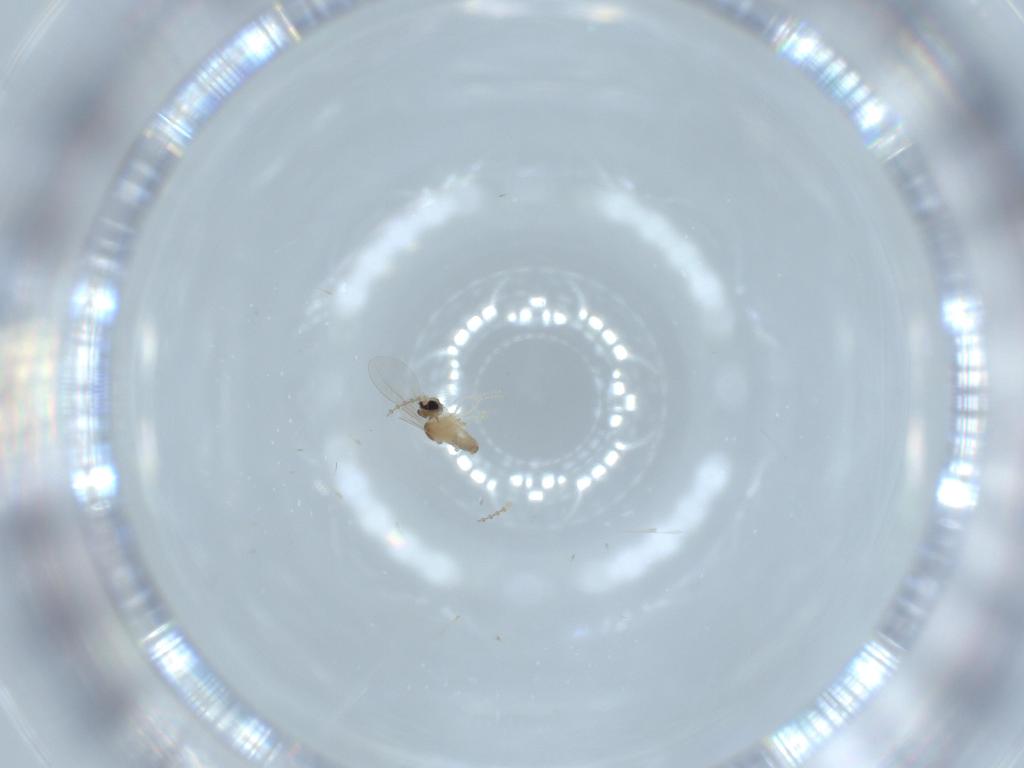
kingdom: Animalia
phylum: Arthropoda
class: Insecta
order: Diptera
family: Cecidomyiidae
